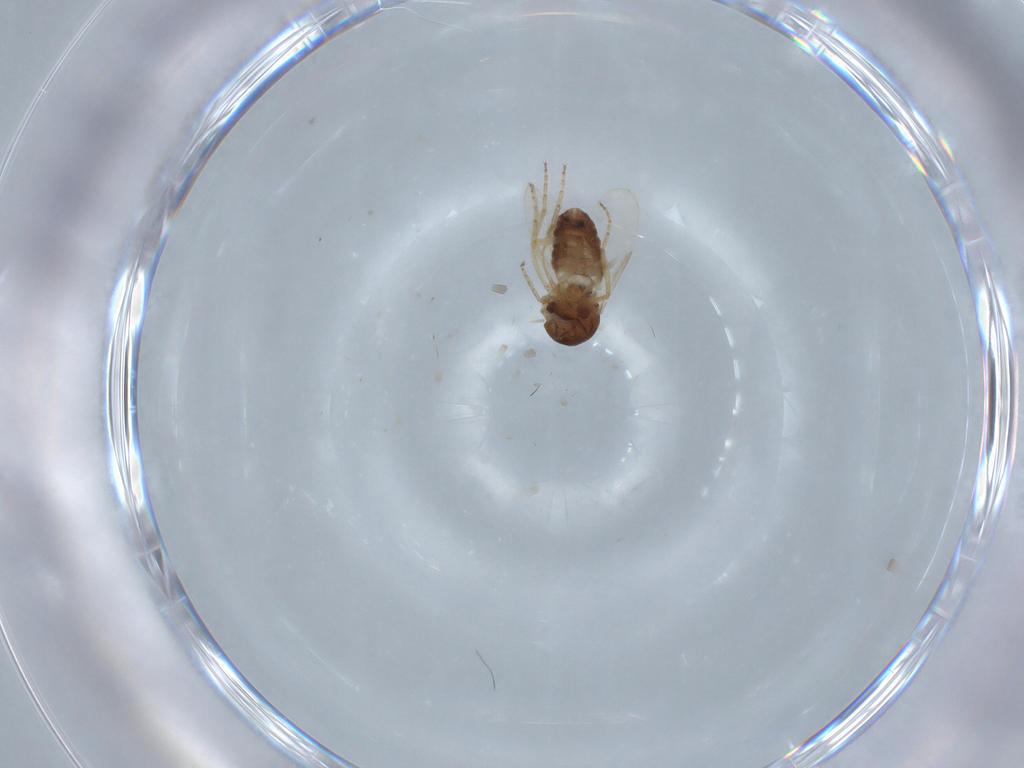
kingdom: Animalia
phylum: Arthropoda
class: Insecta
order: Diptera
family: Ceratopogonidae
